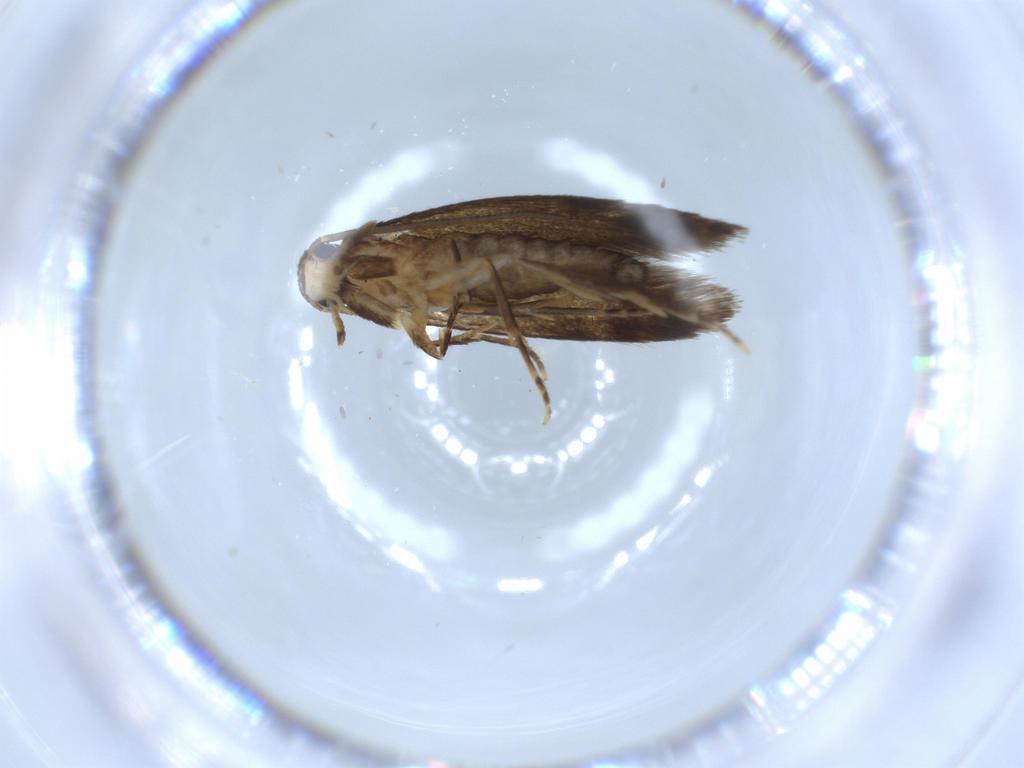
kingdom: Animalia
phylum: Arthropoda
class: Insecta
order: Lepidoptera
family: Tineidae
